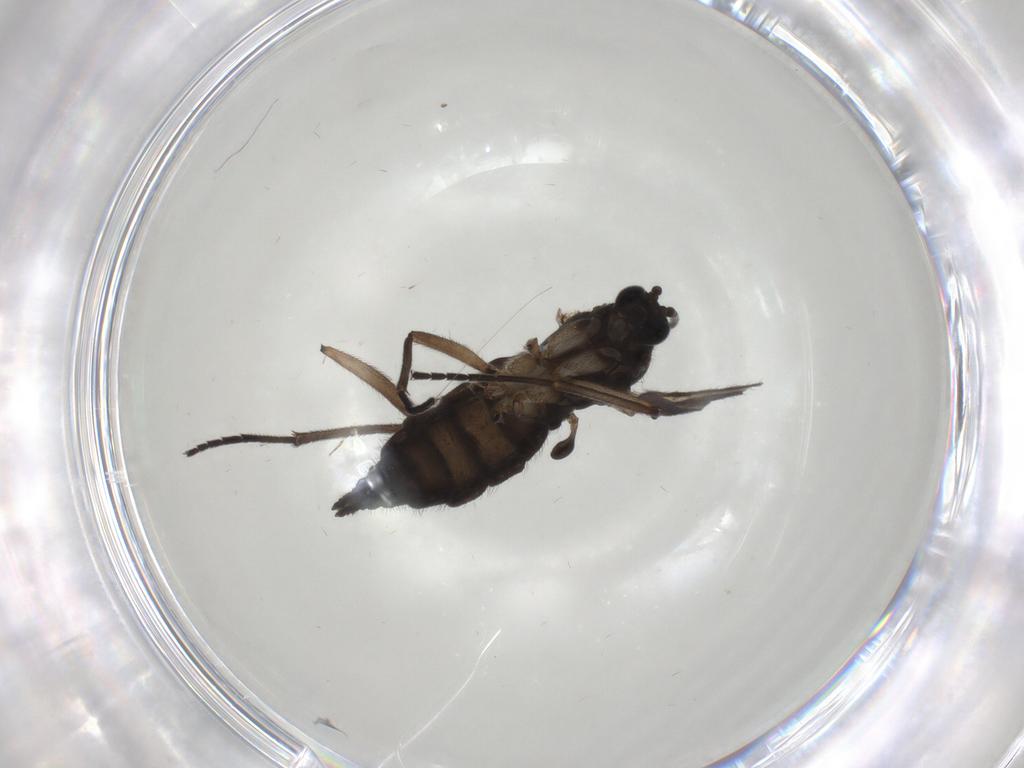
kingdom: Animalia
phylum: Arthropoda
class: Insecta
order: Diptera
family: Sciaridae
